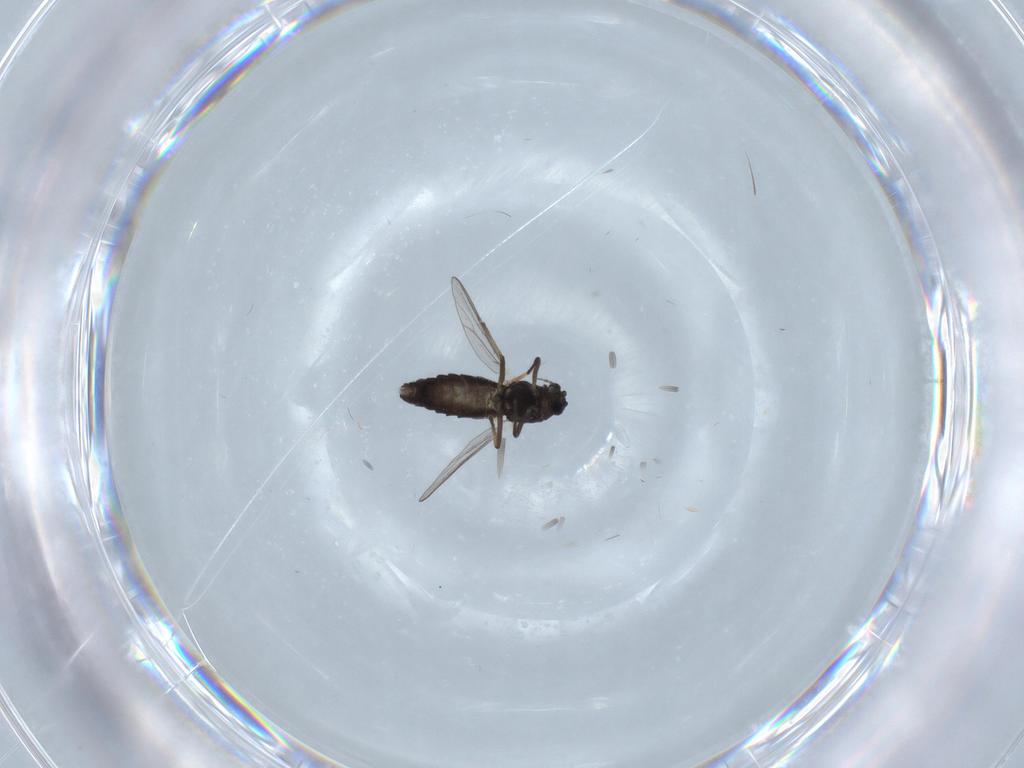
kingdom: Animalia
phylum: Arthropoda
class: Insecta
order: Diptera
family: Chironomidae
